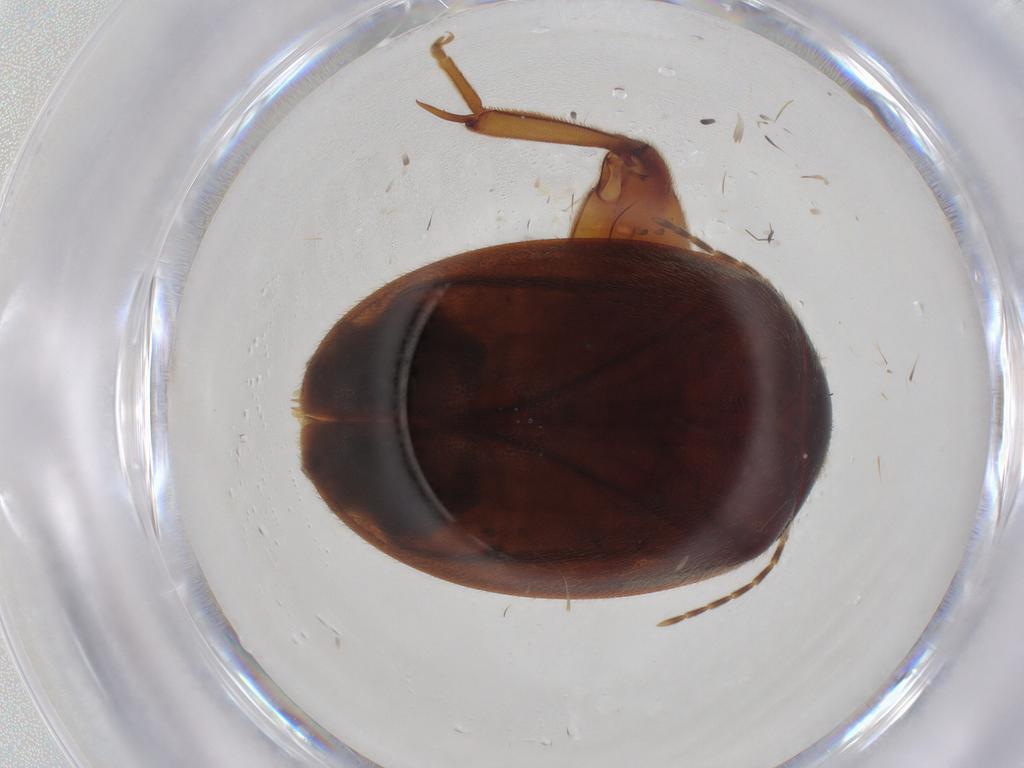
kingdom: Animalia
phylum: Arthropoda
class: Insecta
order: Coleoptera
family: Scirtidae
